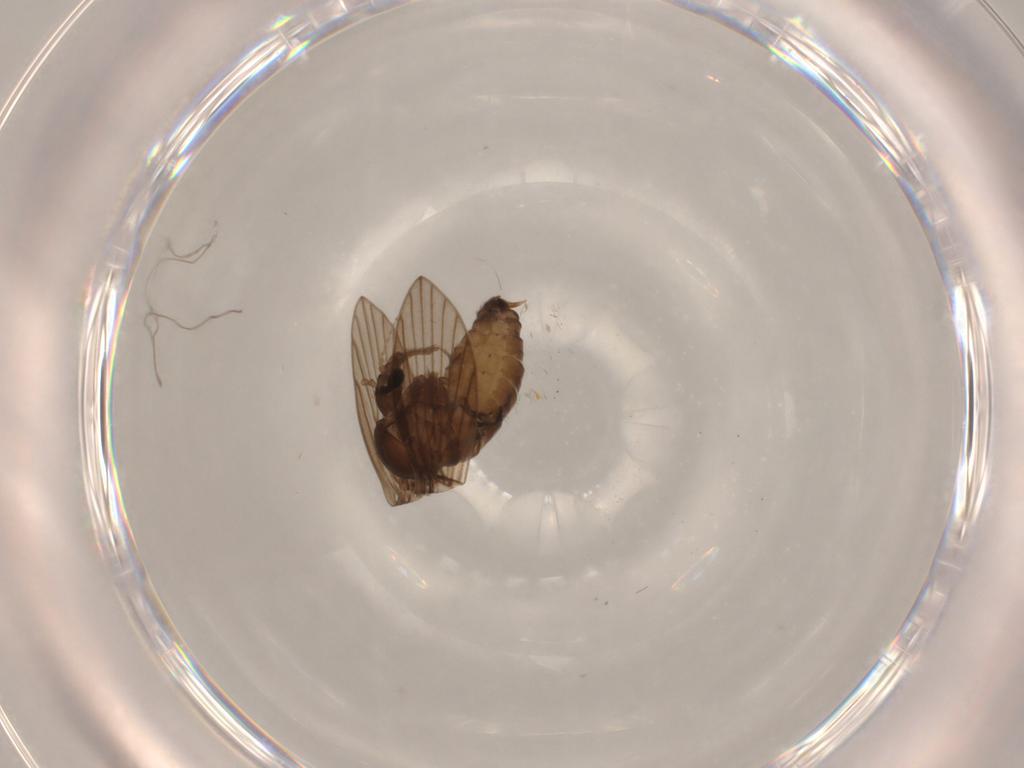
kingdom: Animalia
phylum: Arthropoda
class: Insecta
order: Diptera
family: Psychodidae
